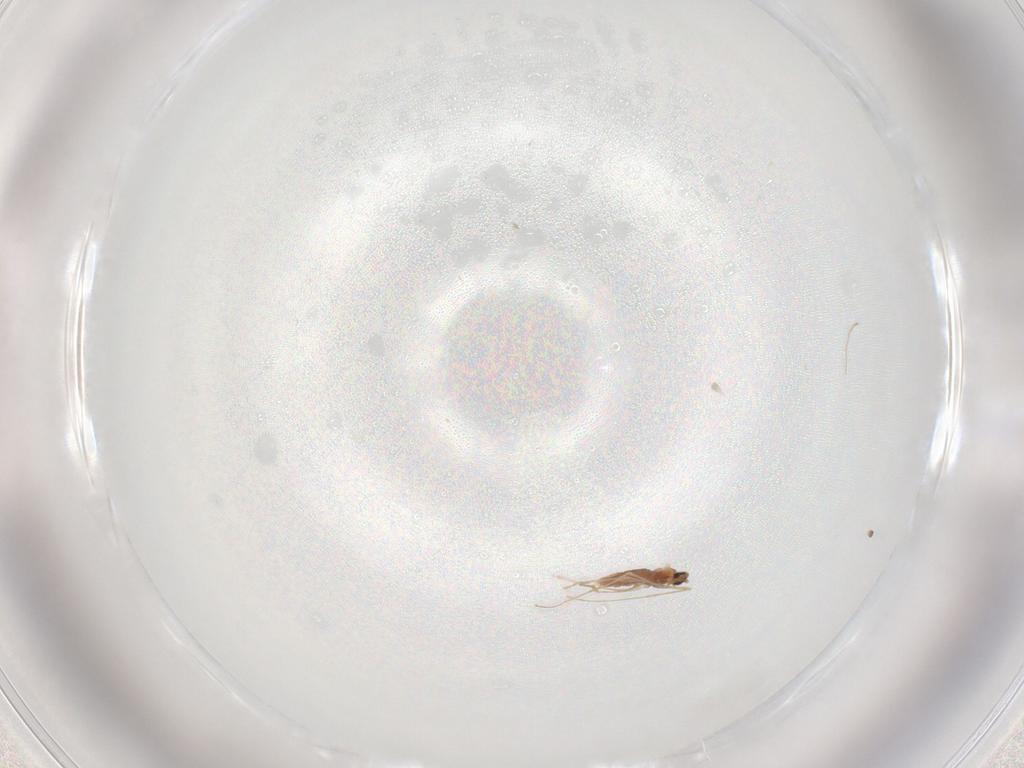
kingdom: Animalia
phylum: Arthropoda
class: Insecta
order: Diptera
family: Cecidomyiidae
